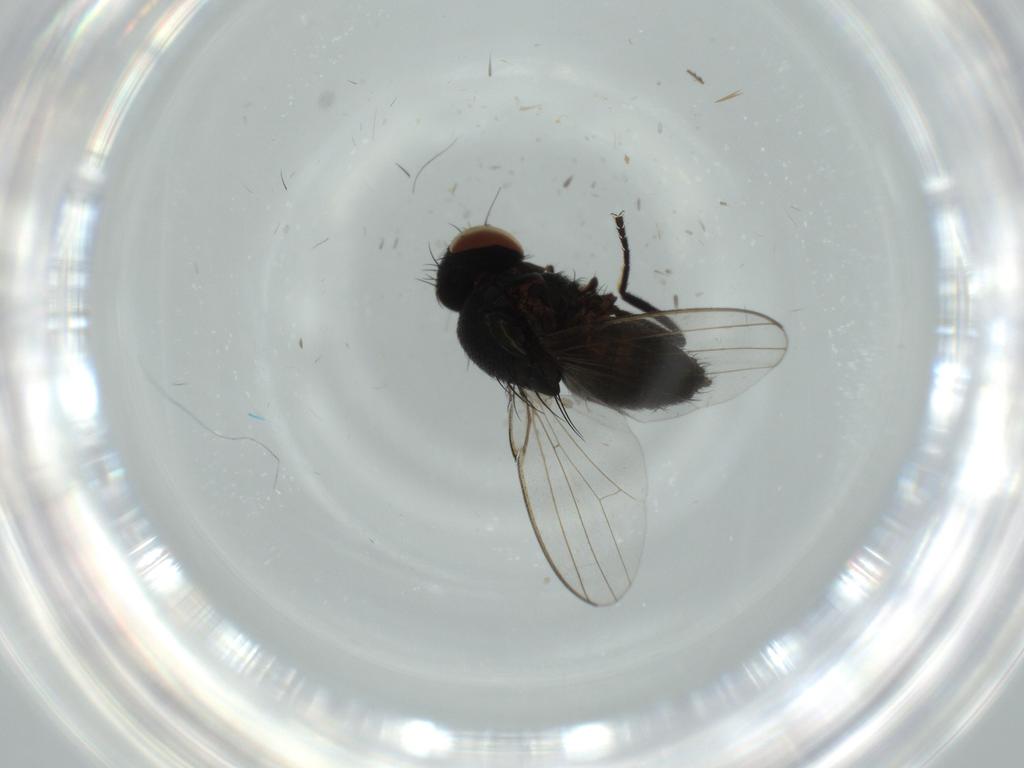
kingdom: Animalia
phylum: Arthropoda
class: Insecta
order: Diptera
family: Milichiidae
